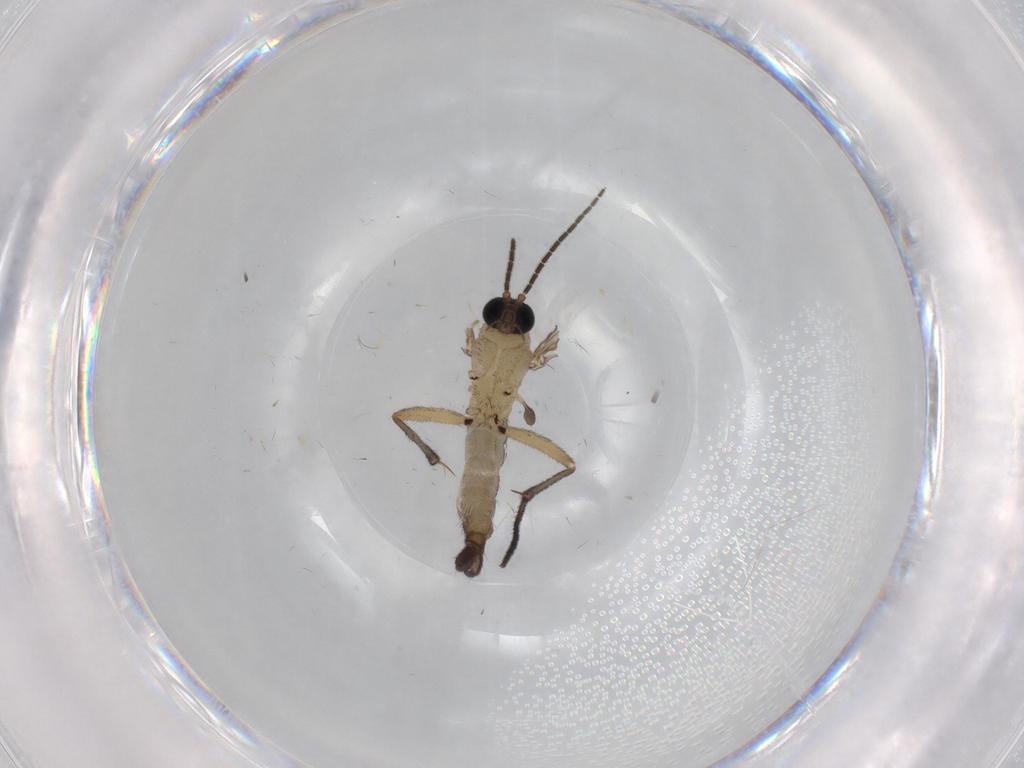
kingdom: Animalia
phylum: Arthropoda
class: Insecta
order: Diptera
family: Sciaridae
